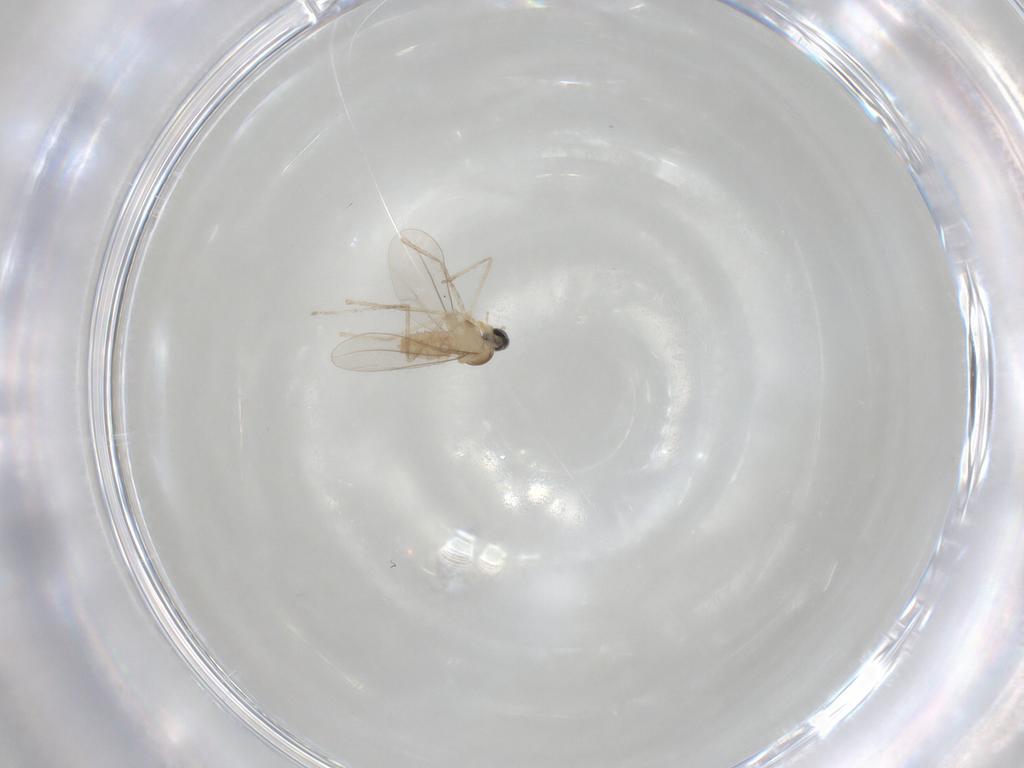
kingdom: Animalia
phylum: Arthropoda
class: Insecta
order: Diptera
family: Cecidomyiidae
